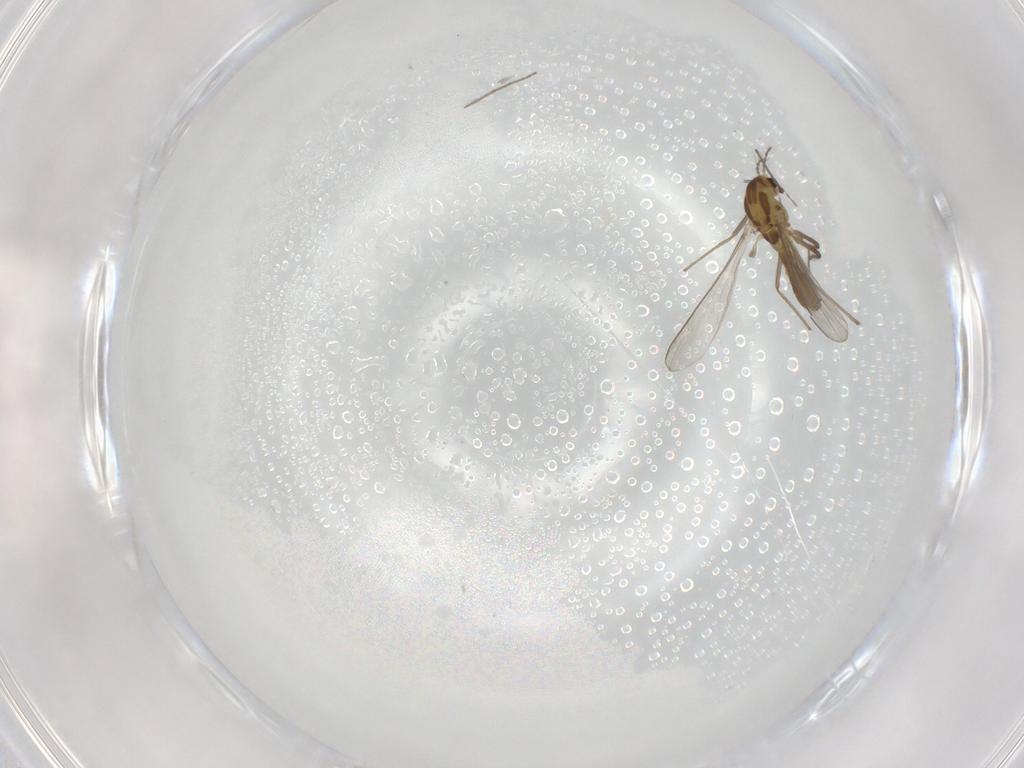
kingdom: Animalia
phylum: Arthropoda
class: Insecta
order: Diptera
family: Chironomidae
